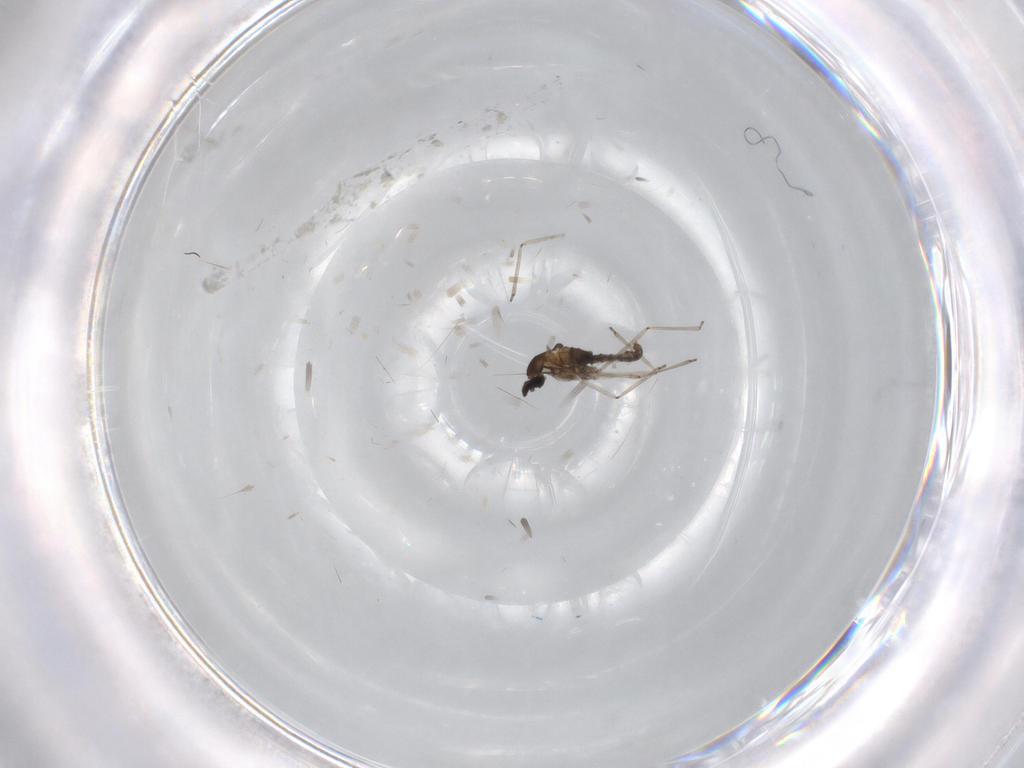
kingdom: Animalia
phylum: Arthropoda
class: Insecta
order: Diptera
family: Cecidomyiidae
